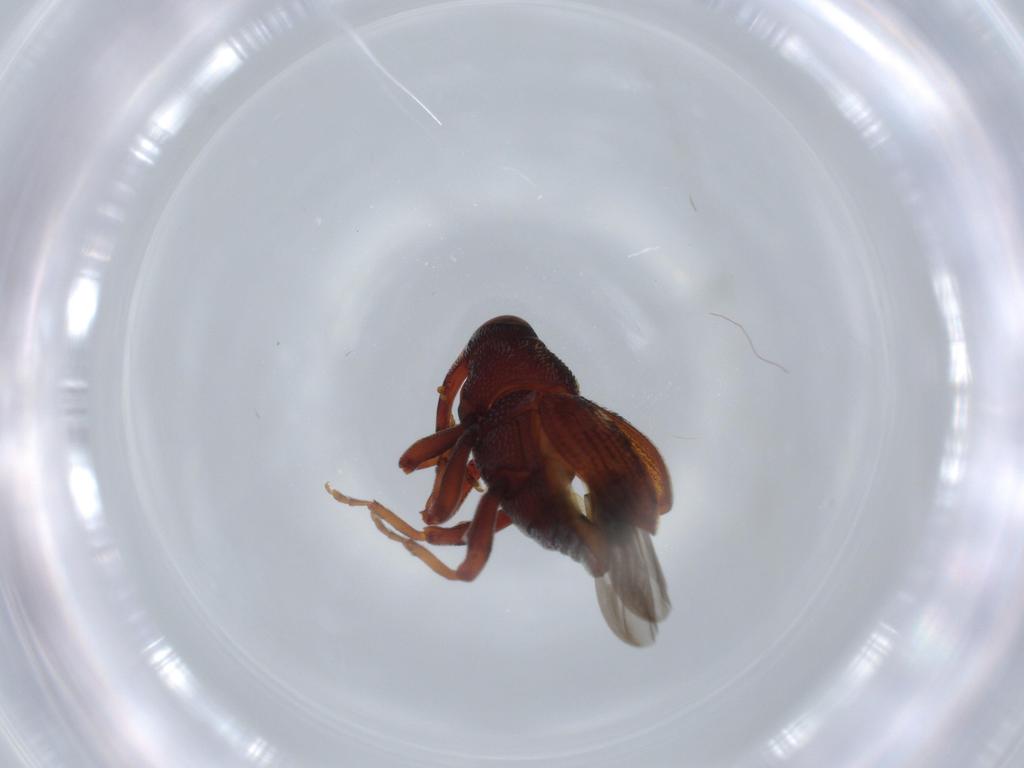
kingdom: Animalia
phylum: Arthropoda
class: Insecta
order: Coleoptera
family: Curculionidae
